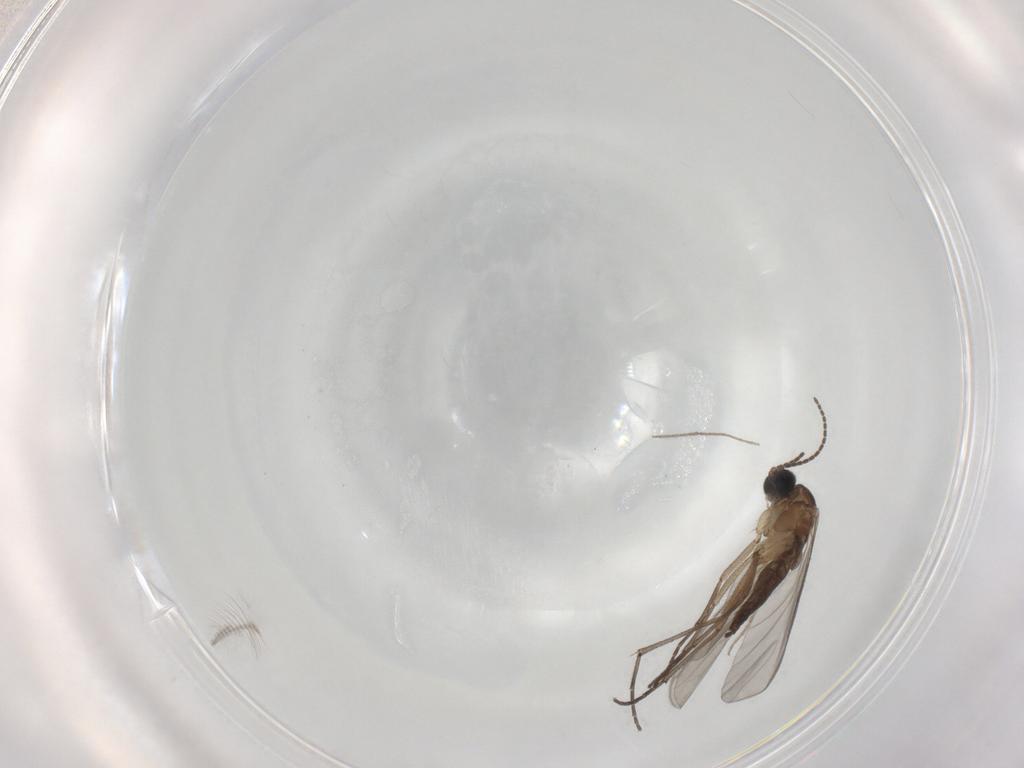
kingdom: Animalia
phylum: Arthropoda
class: Insecta
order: Diptera
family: Sciaridae
